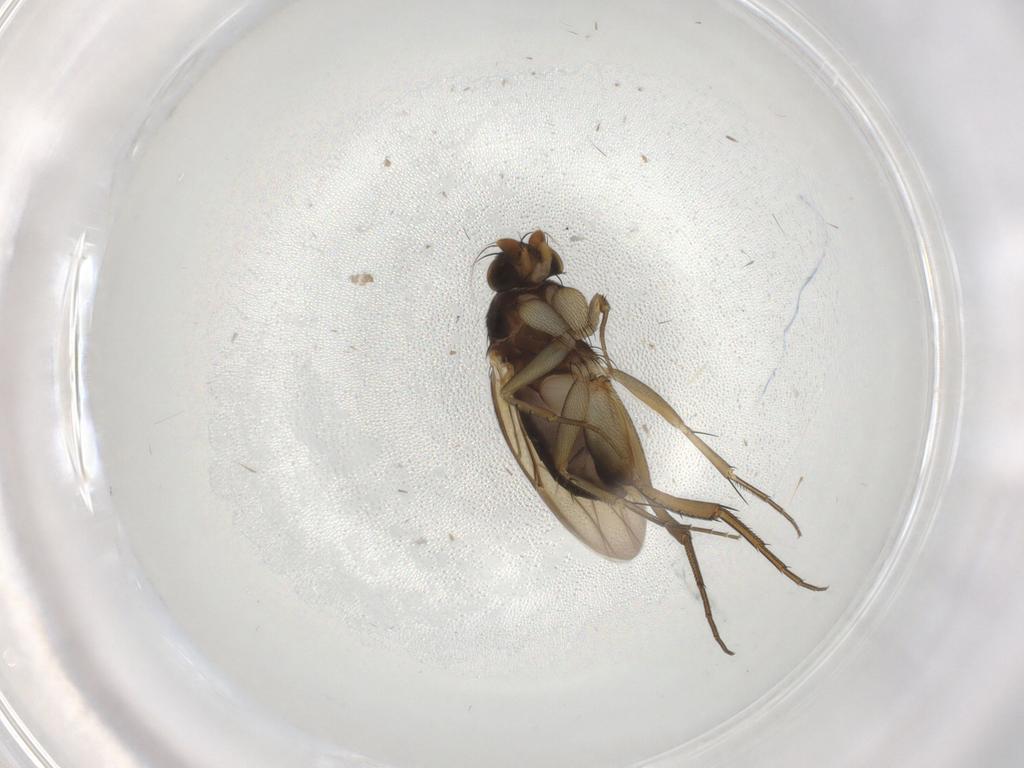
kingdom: Animalia
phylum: Arthropoda
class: Insecta
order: Diptera
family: Phoridae
